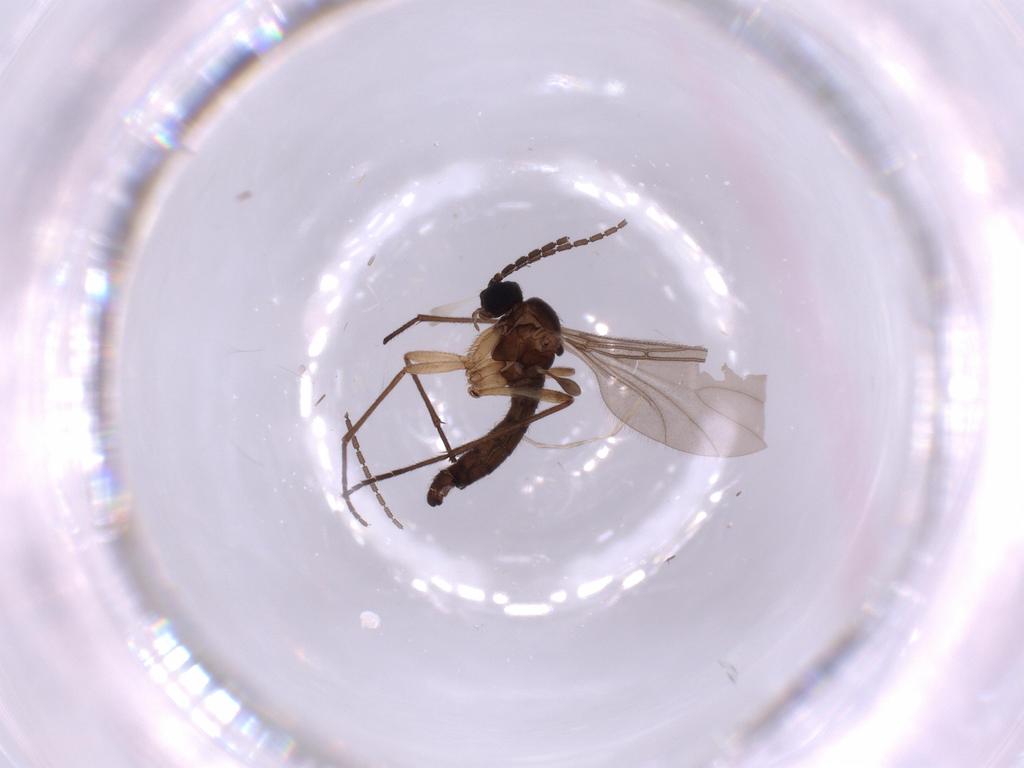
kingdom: Animalia
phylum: Arthropoda
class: Insecta
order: Diptera
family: Sciaridae
